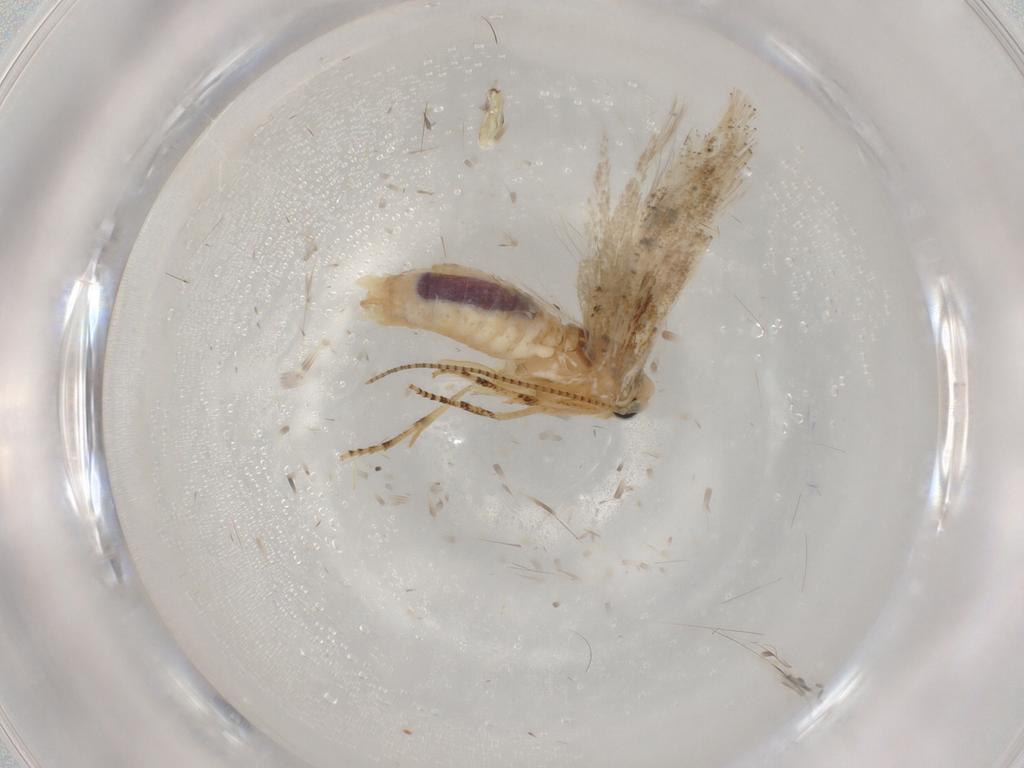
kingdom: Animalia
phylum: Arthropoda
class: Insecta
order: Lepidoptera
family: Bucculatricidae
